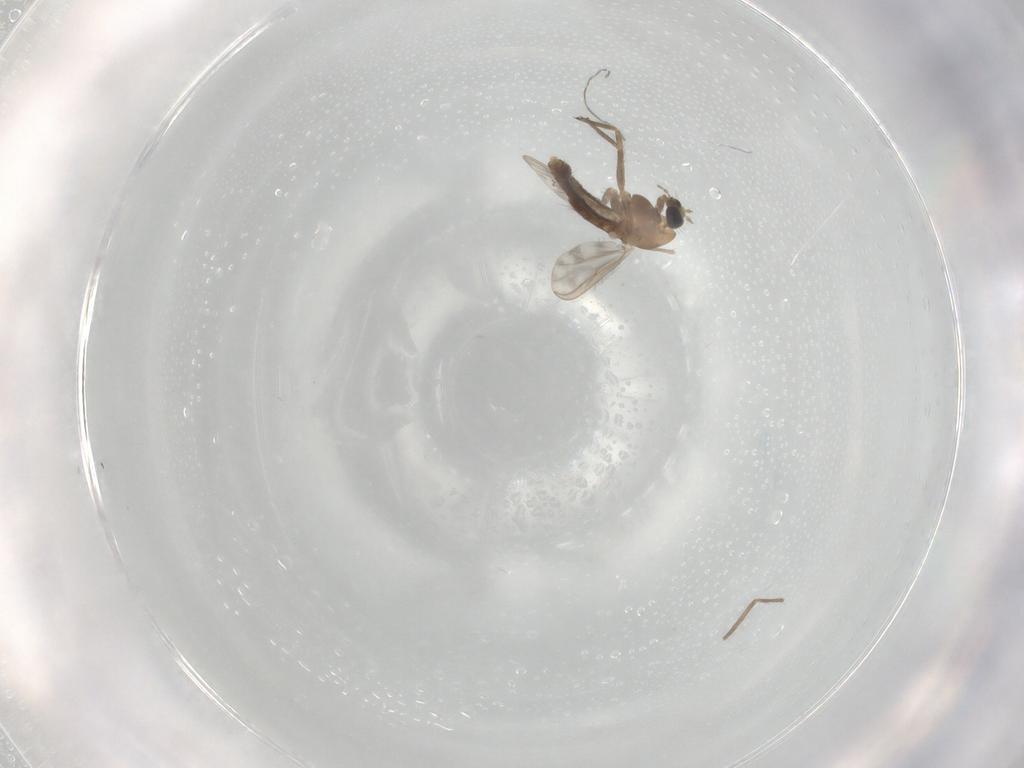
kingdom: Animalia
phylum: Arthropoda
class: Insecta
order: Diptera
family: Chironomidae
